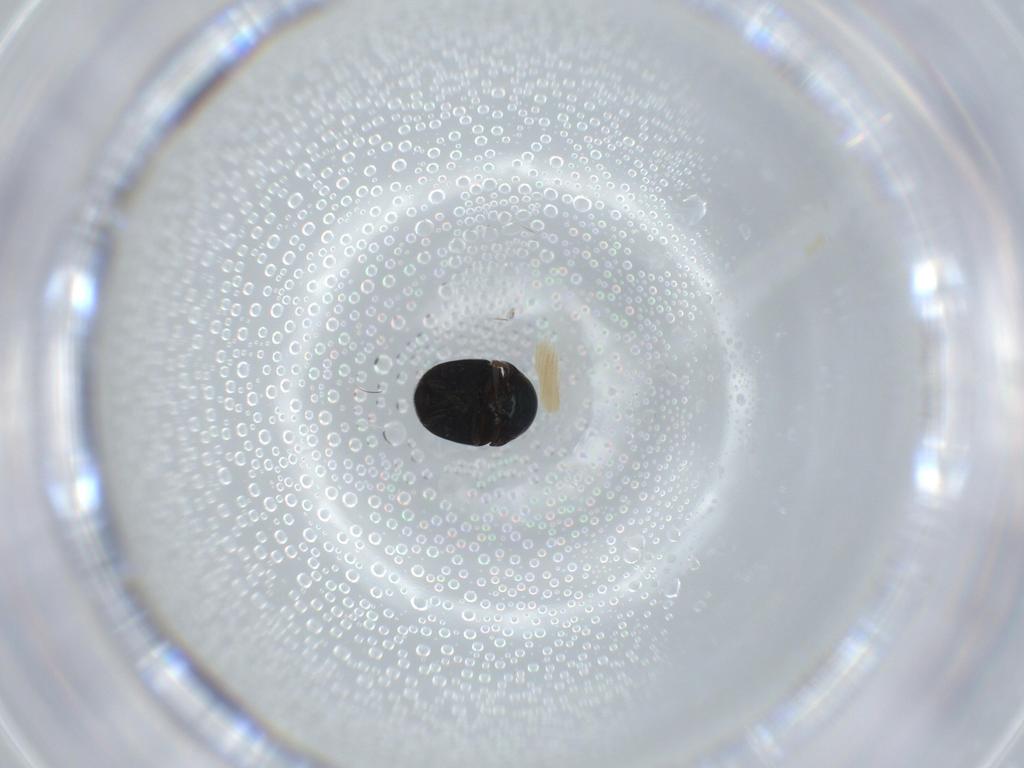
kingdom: Animalia
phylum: Arthropoda
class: Insecta
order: Coleoptera
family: Cybocephalidae
